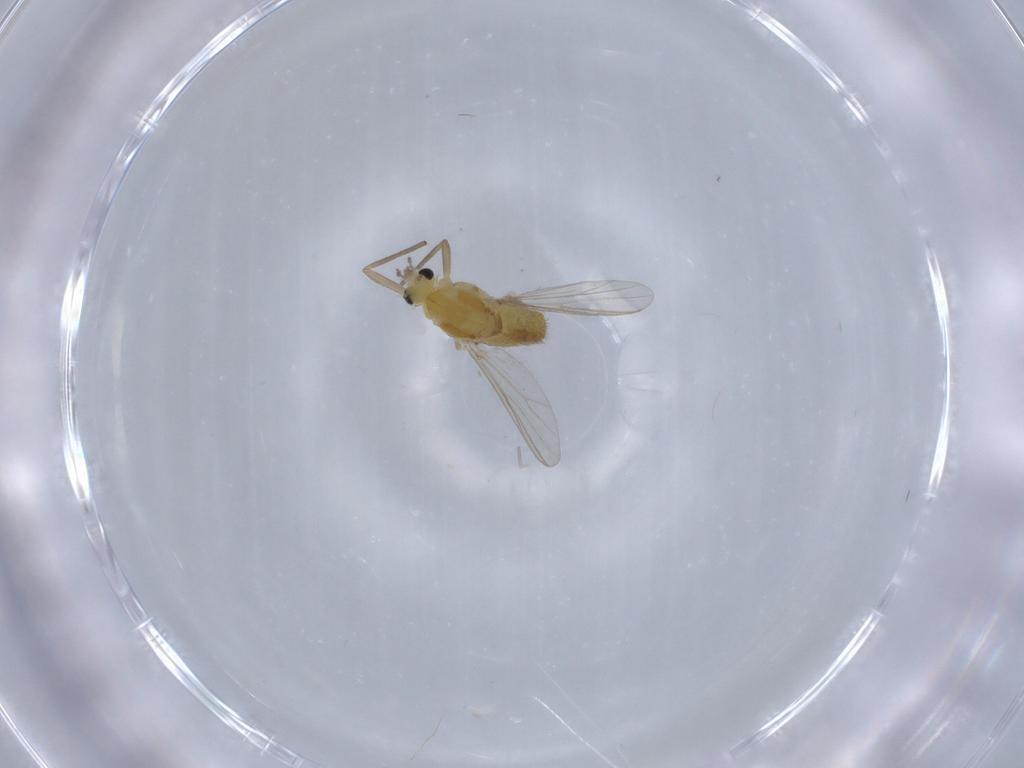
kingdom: Animalia
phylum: Arthropoda
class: Insecta
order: Diptera
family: Chironomidae
